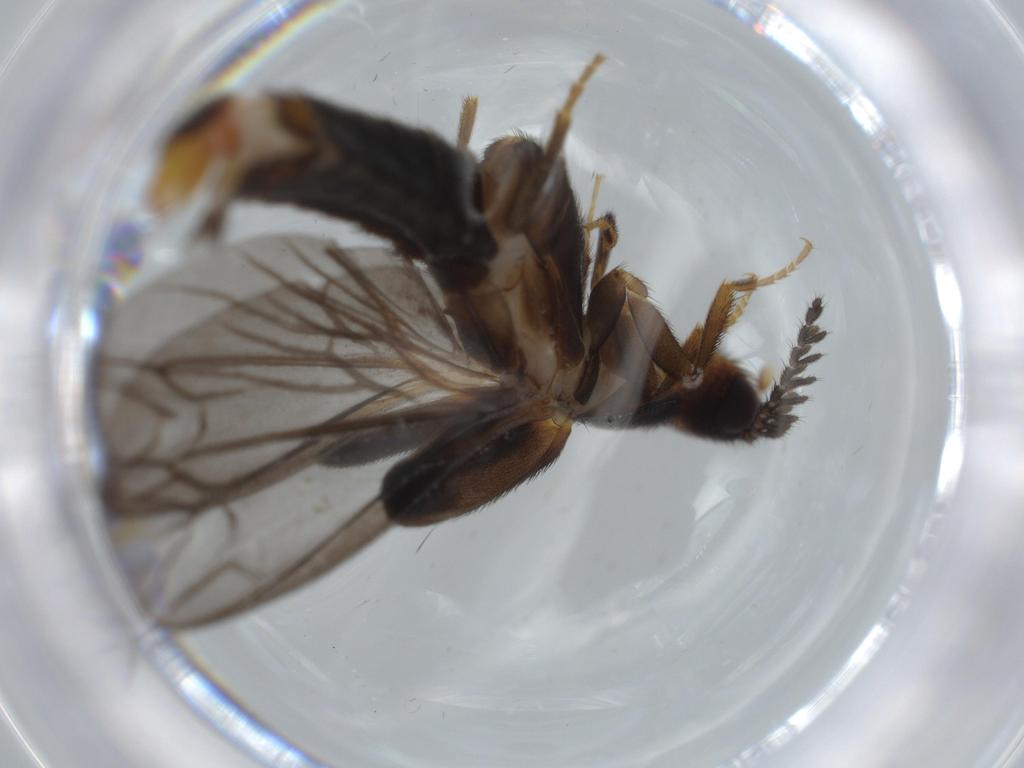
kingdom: Animalia
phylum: Arthropoda
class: Insecta
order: Coleoptera
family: Scraptiidae
